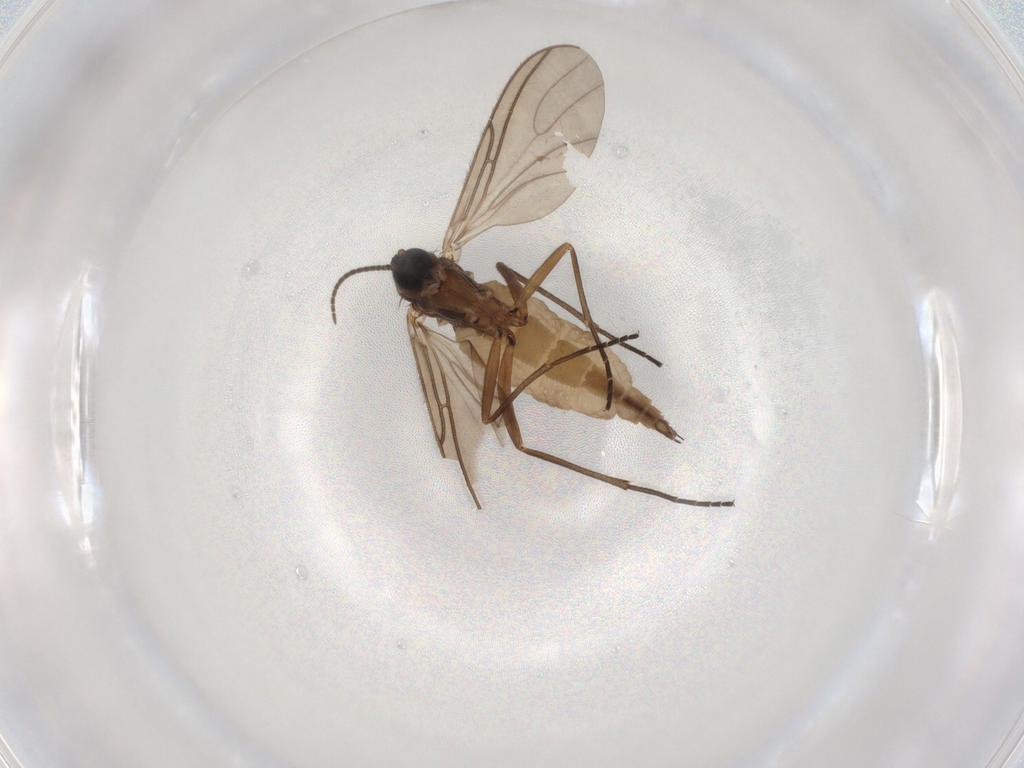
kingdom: Animalia
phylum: Arthropoda
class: Insecta
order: Diptera
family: Sciaridae
